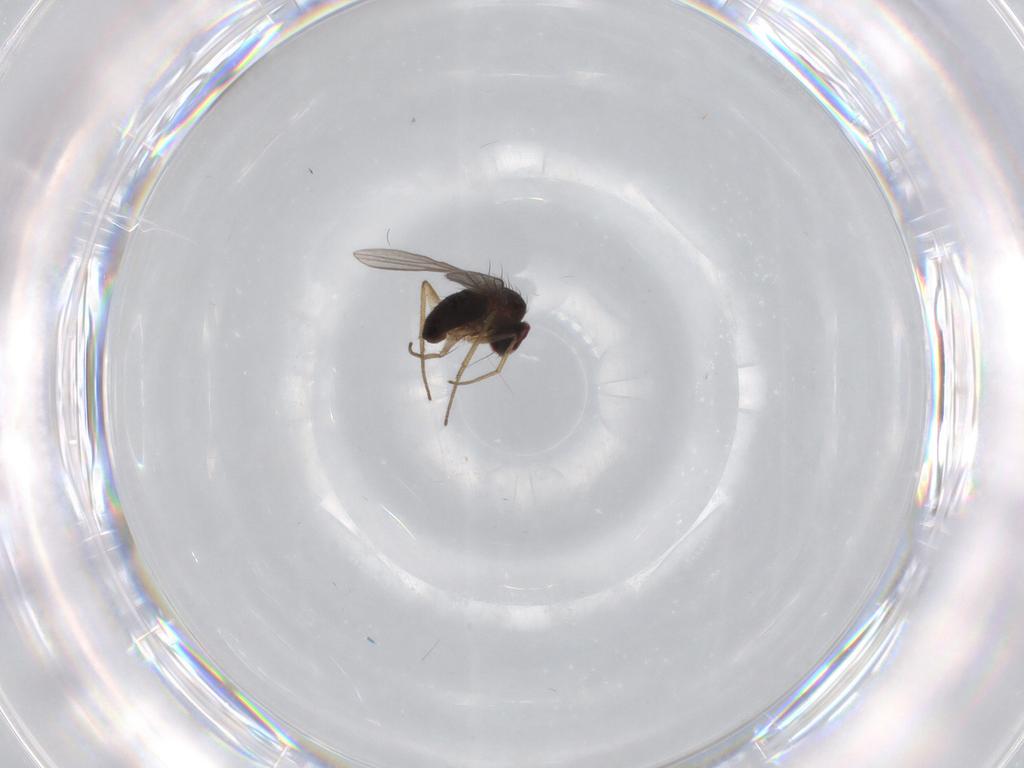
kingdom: Animalia
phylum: Arthropoda
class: Insecta
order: Diptera
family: Dolichopodidae
